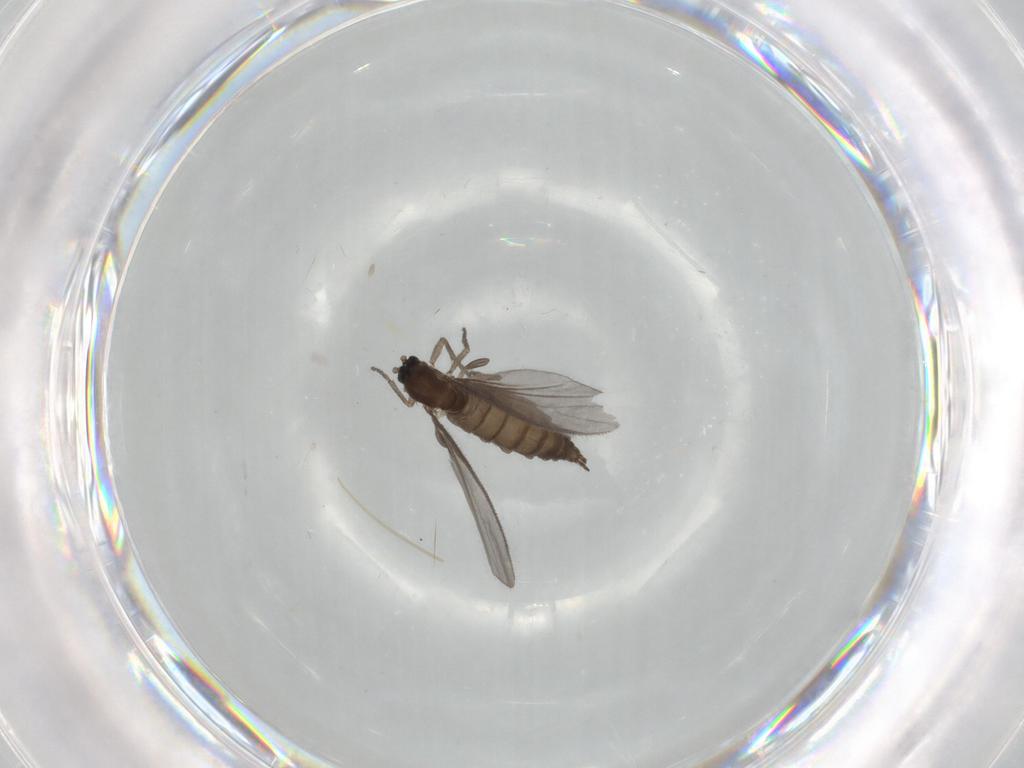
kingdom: Animalia
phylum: Arthropoda
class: Insecta
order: Diptera
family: Sciaridae
